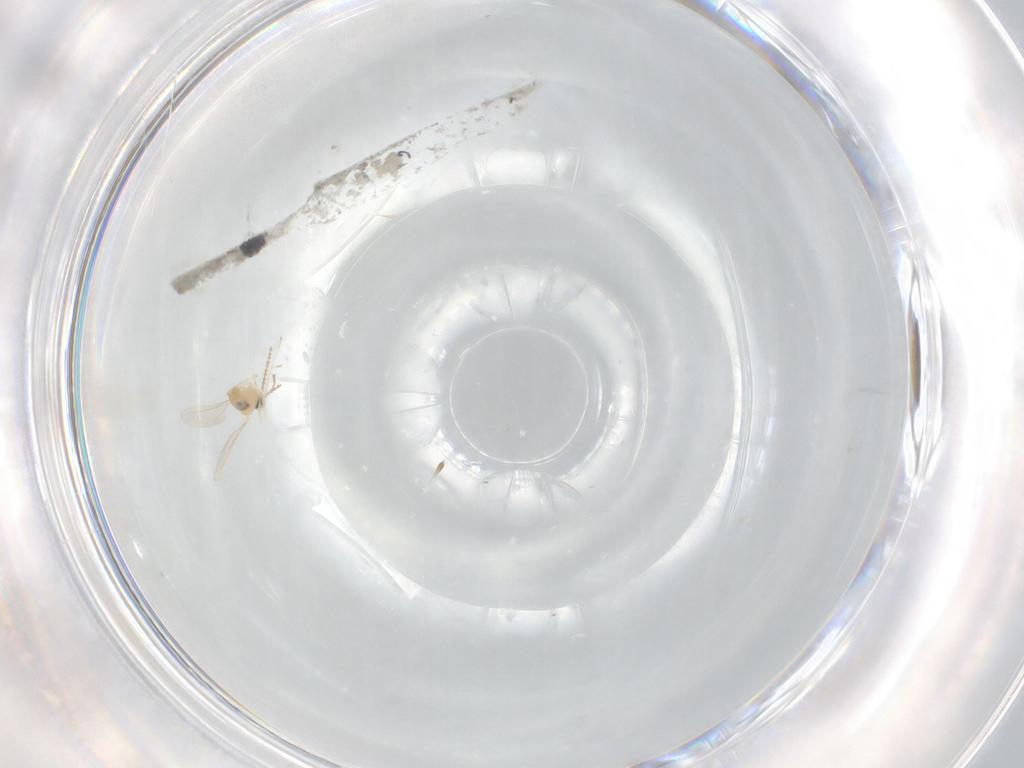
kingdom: Animalia
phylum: Arthropoda
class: Insecta
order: Diptera
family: Cecidomyiidae
